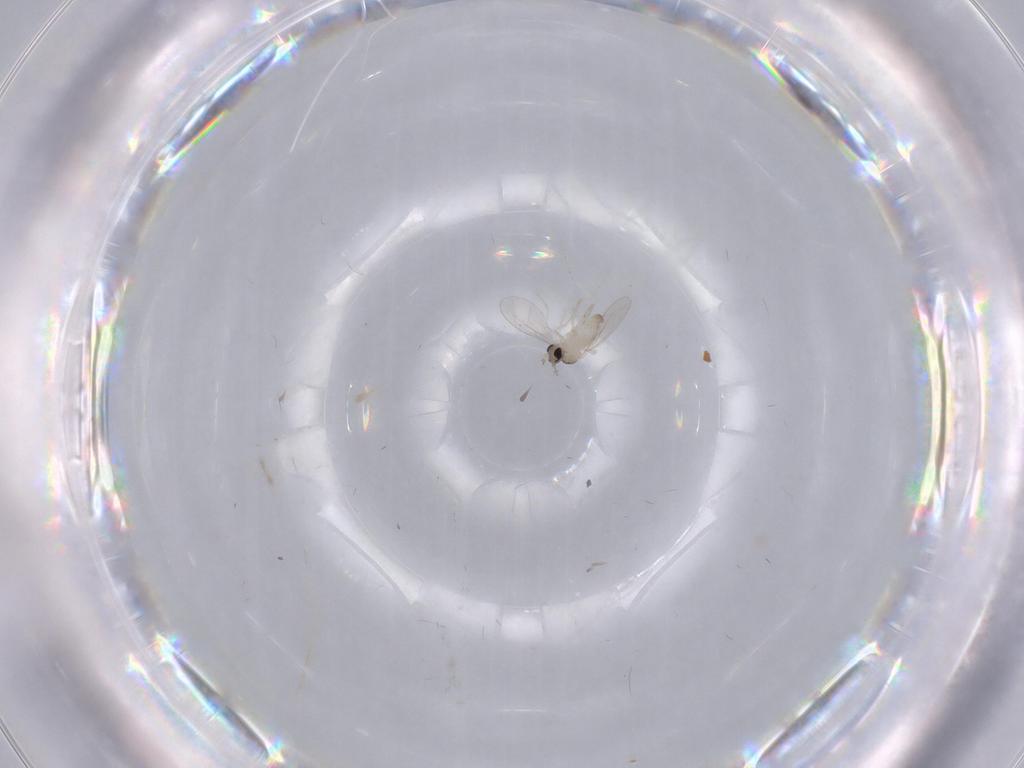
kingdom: Animalia
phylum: Arthropoda
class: Insecta
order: Diptera
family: Cecidomyiidae
